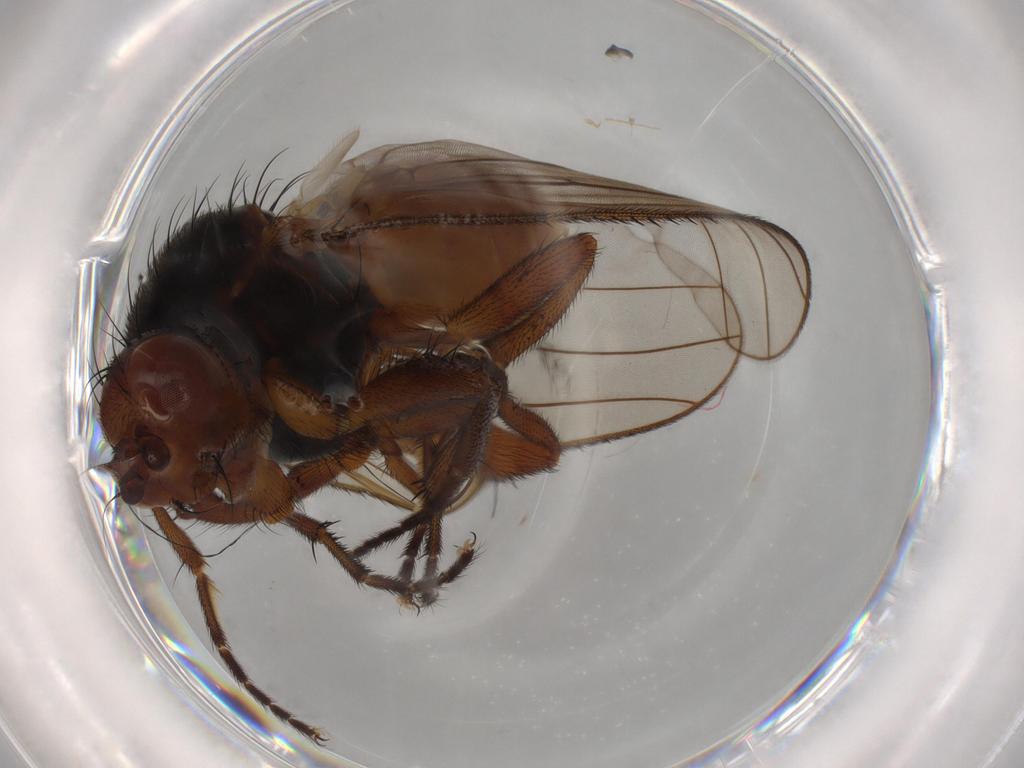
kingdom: Animalia
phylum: Arthropoda
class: Insecta
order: Diptera
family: Heleomyzidae
